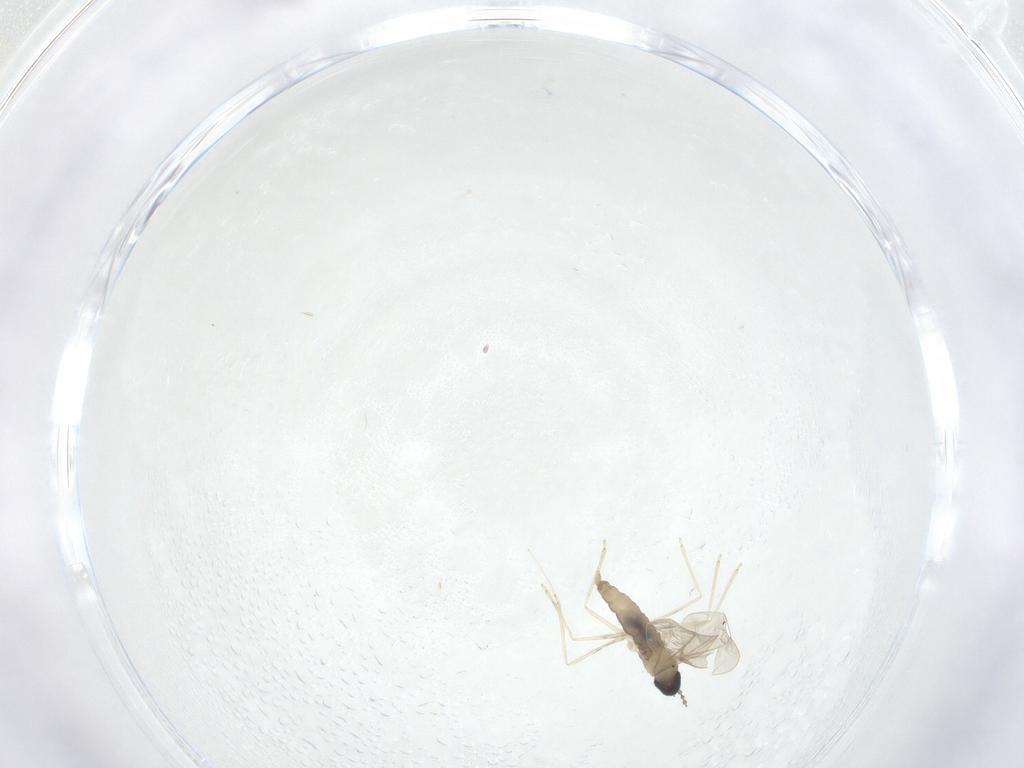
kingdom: Animalia
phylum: Arthropoda
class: Insecta
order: Diptera
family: Cecidomyiidae
